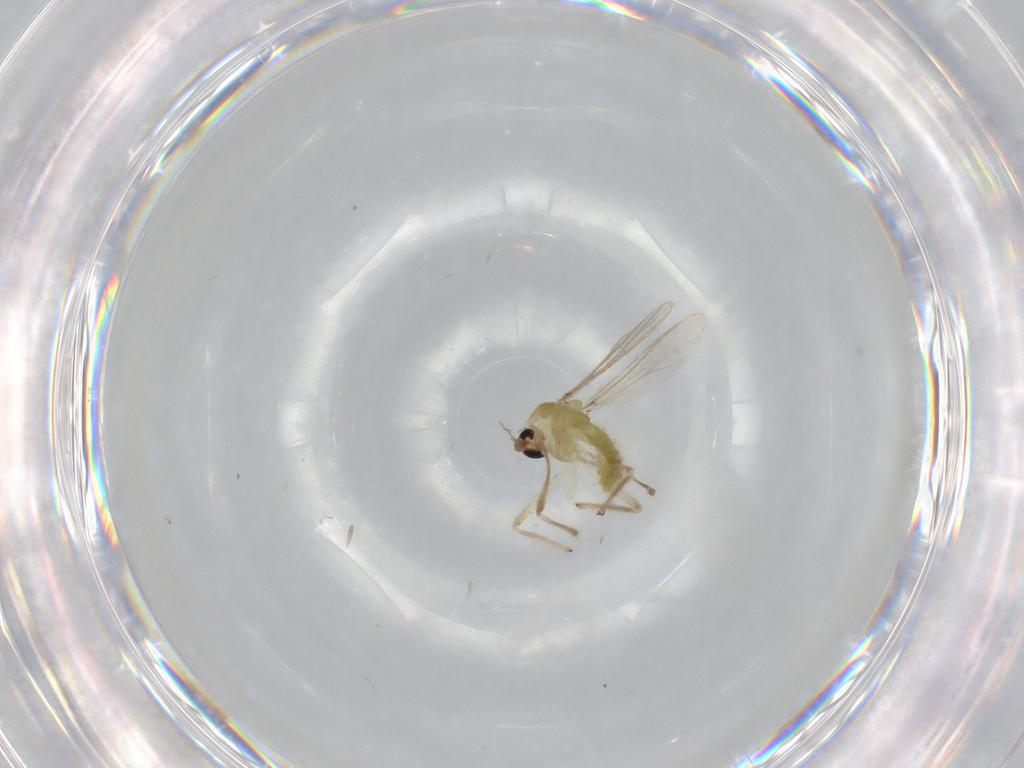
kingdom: Animalia
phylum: Arthropoda
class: Insecta
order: Diptera
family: Chironomidae
